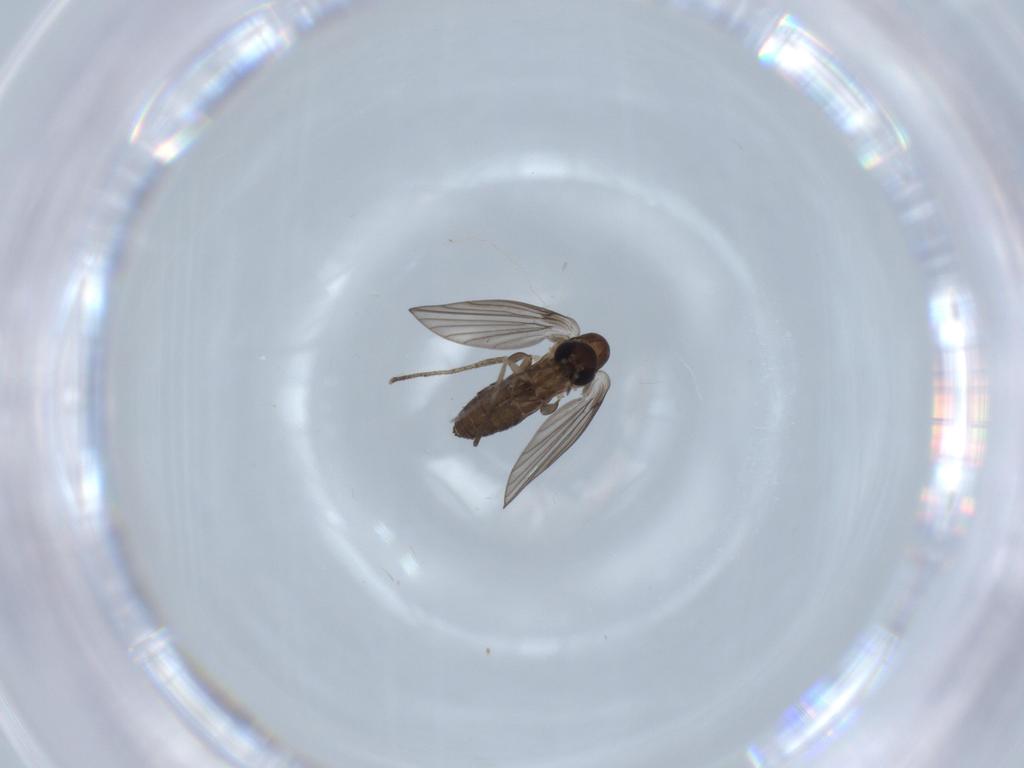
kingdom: Animalia
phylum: Arthropoda
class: Insecta
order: Diptera
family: Psychodidae
